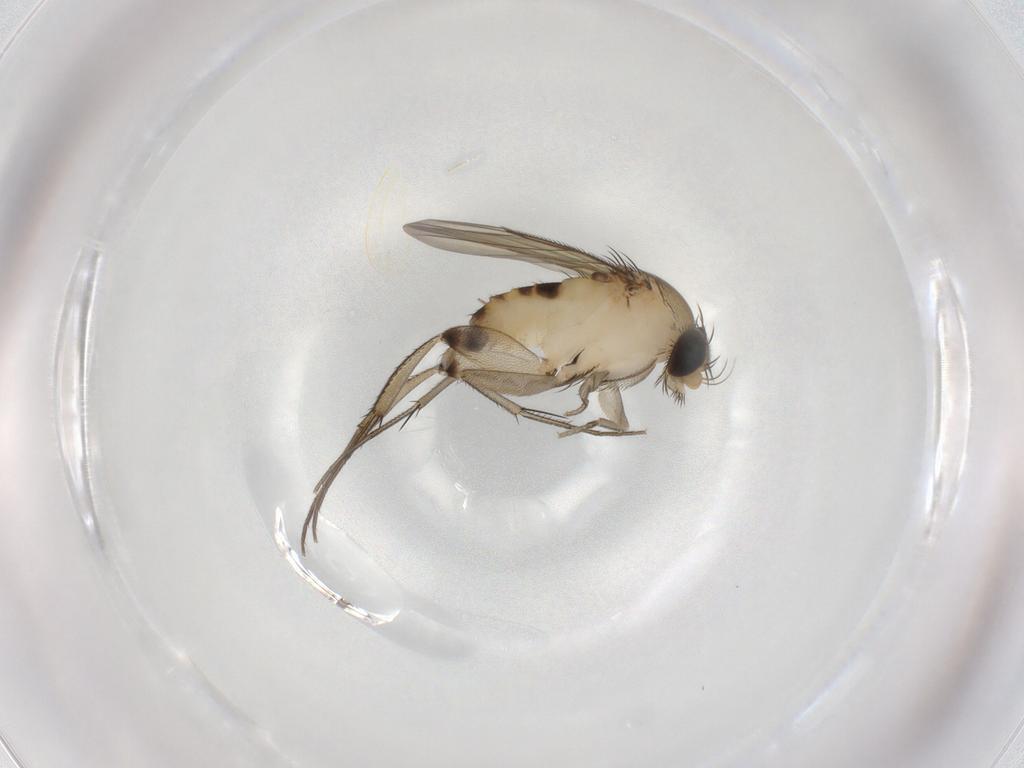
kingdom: Animalia
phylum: Arthropoda
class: Insecta
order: Diptera
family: Phoridae
